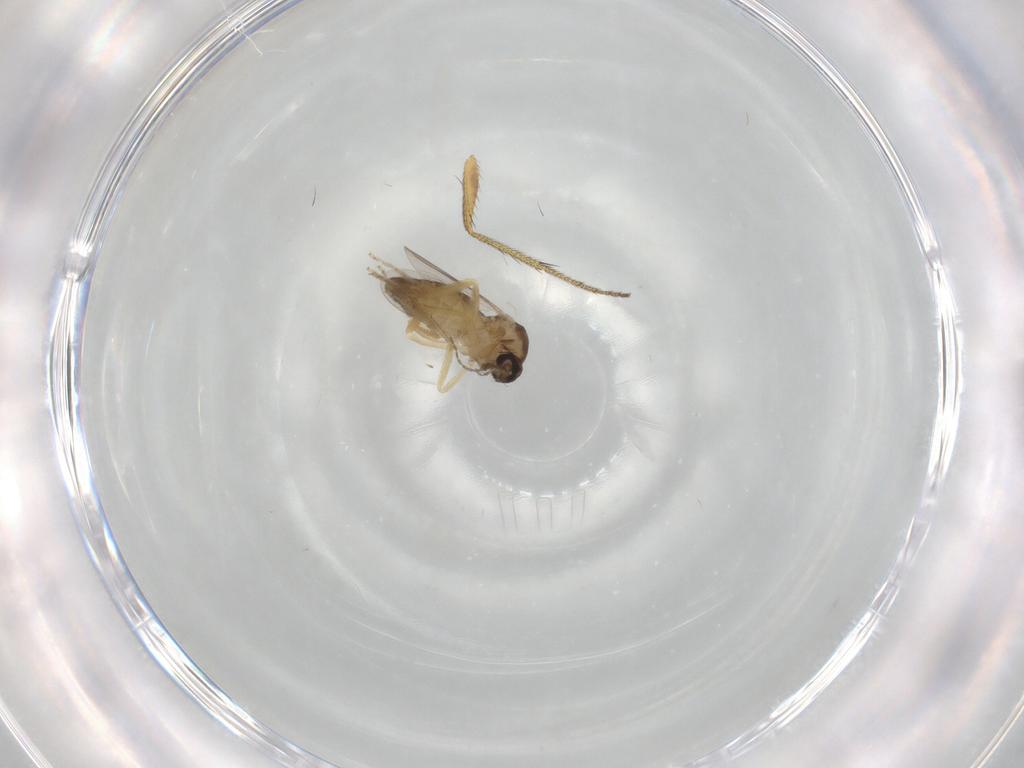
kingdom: Animalia
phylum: Arthropoda
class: Insecta
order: Diptera
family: Ceratopogonidae
